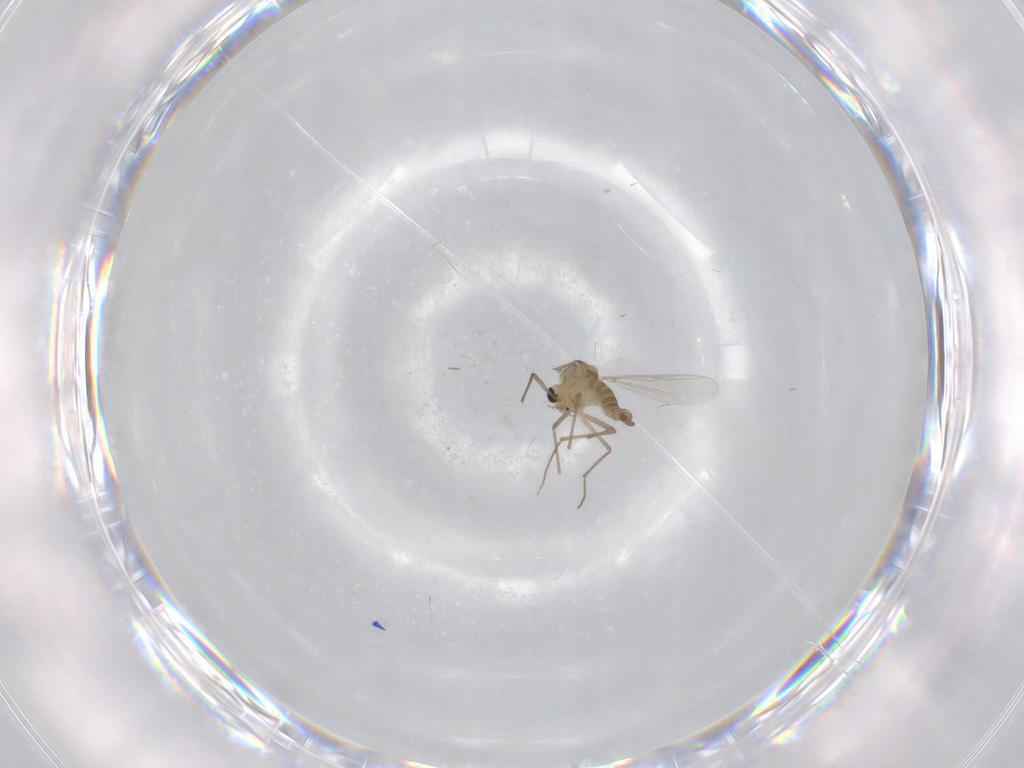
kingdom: Animalia
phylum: Arthropoda
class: Insecta
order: Diptera
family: Chironomidae
